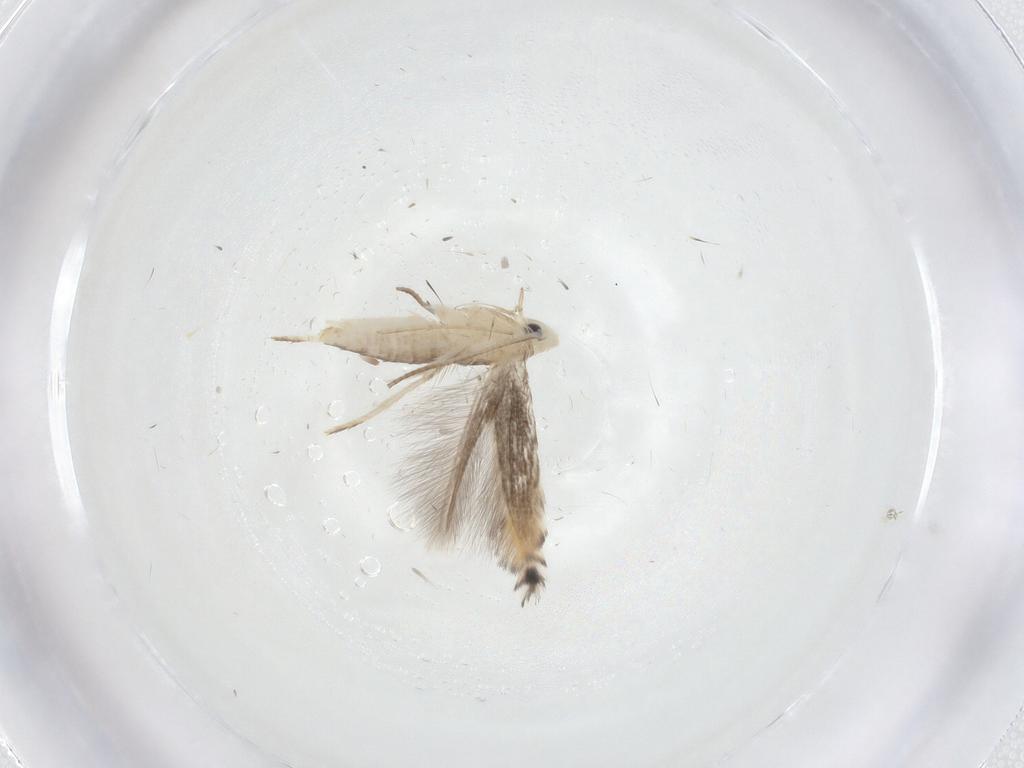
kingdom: Animalia
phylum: Arthropoda
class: Insecta
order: Lepidoptera
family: Gracillariidae
